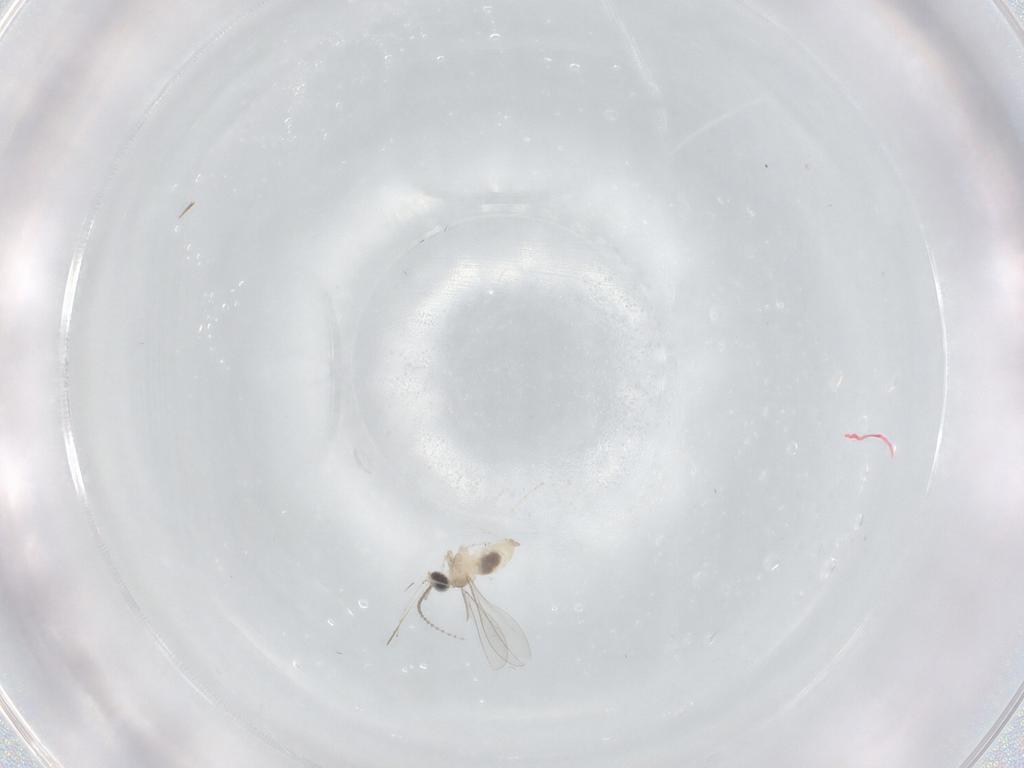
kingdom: Animalia
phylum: Arthropoda
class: Insecta
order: Diptera
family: Cecidomyiidae
